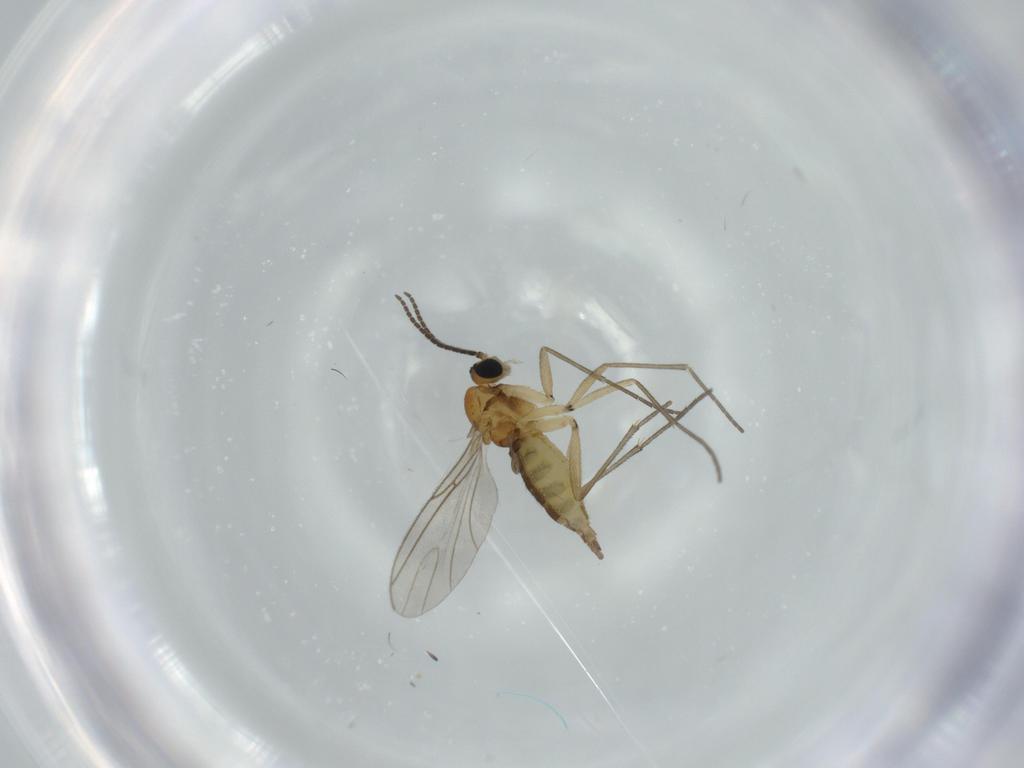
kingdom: Animalia
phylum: Arthropoda
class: Insecta
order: Diptera
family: Sciaridae
